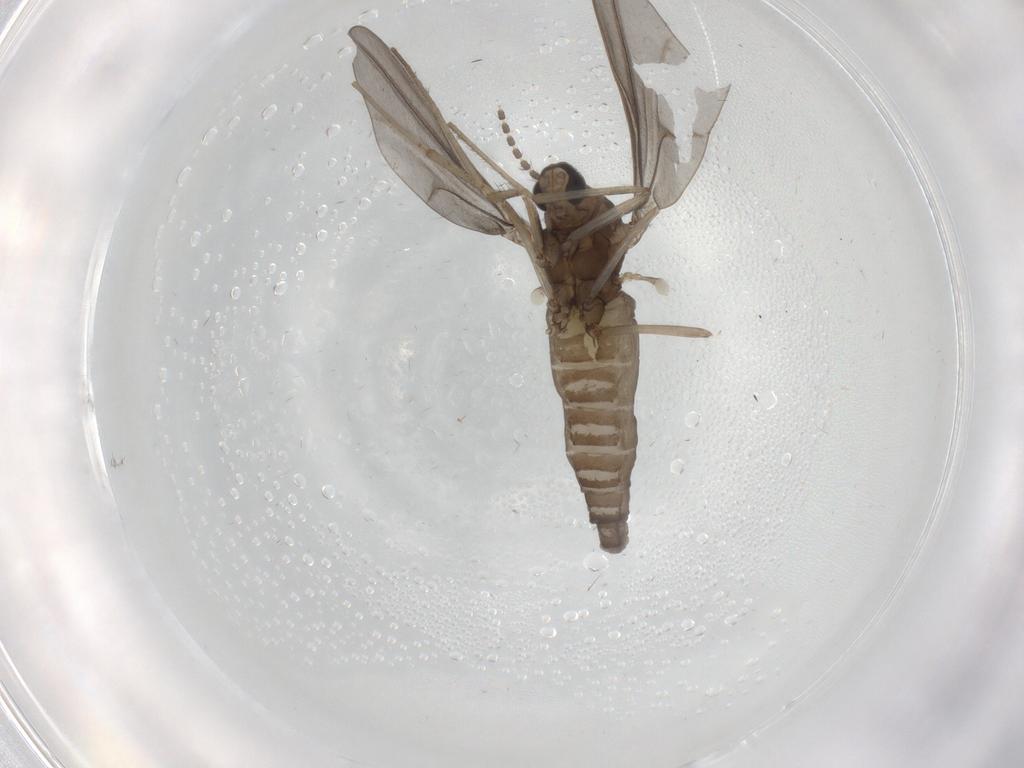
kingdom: Animalia
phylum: Arthropoda
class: Insecta
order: Diptera
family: Cecidomyiidae
